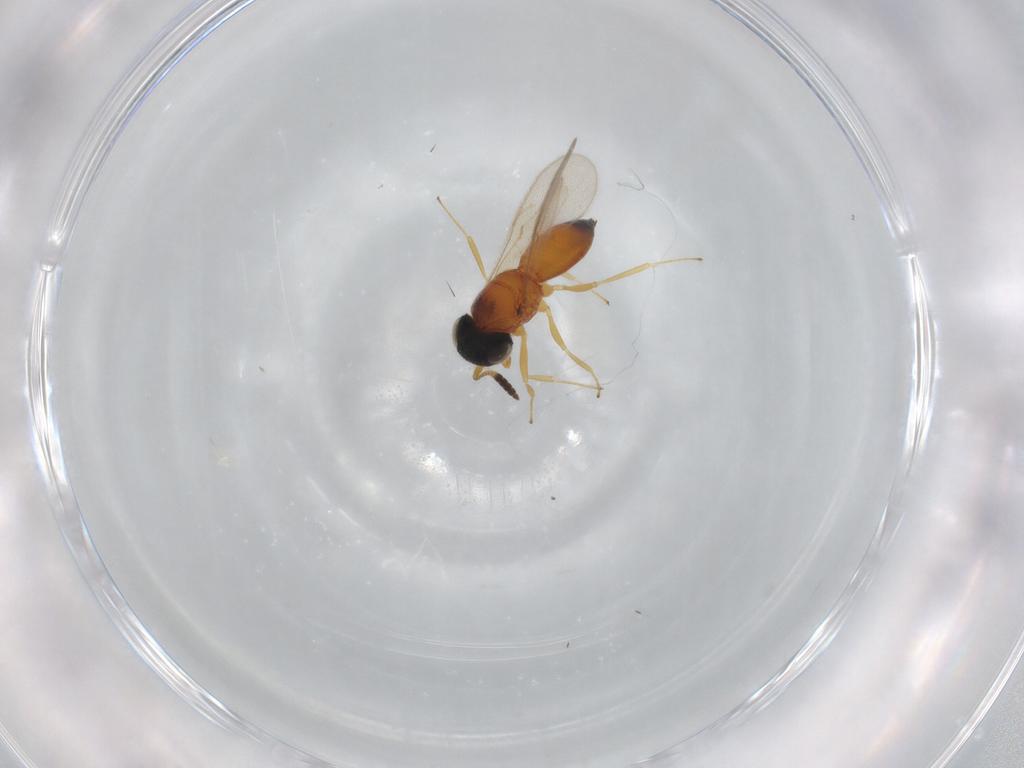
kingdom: Animalia
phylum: Arthropoda
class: Insecta
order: Hymenoptera
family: Scelionidae
